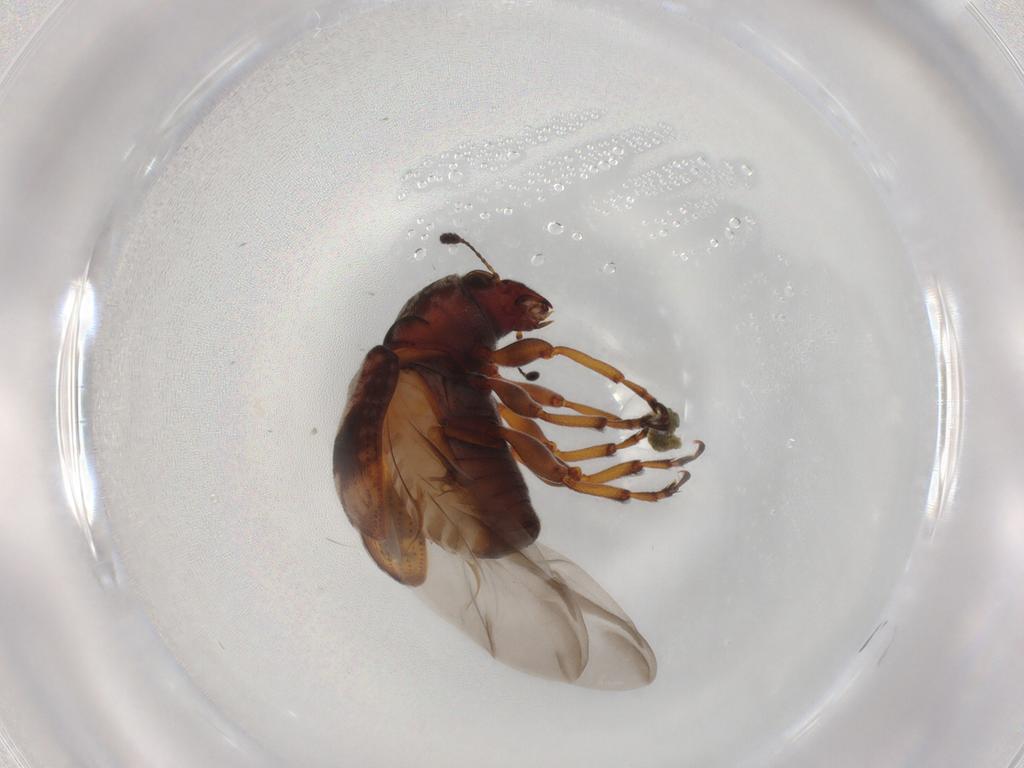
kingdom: Animalia
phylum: Arthropoda
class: Insecta
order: Coleoptera
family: Anthribidae
